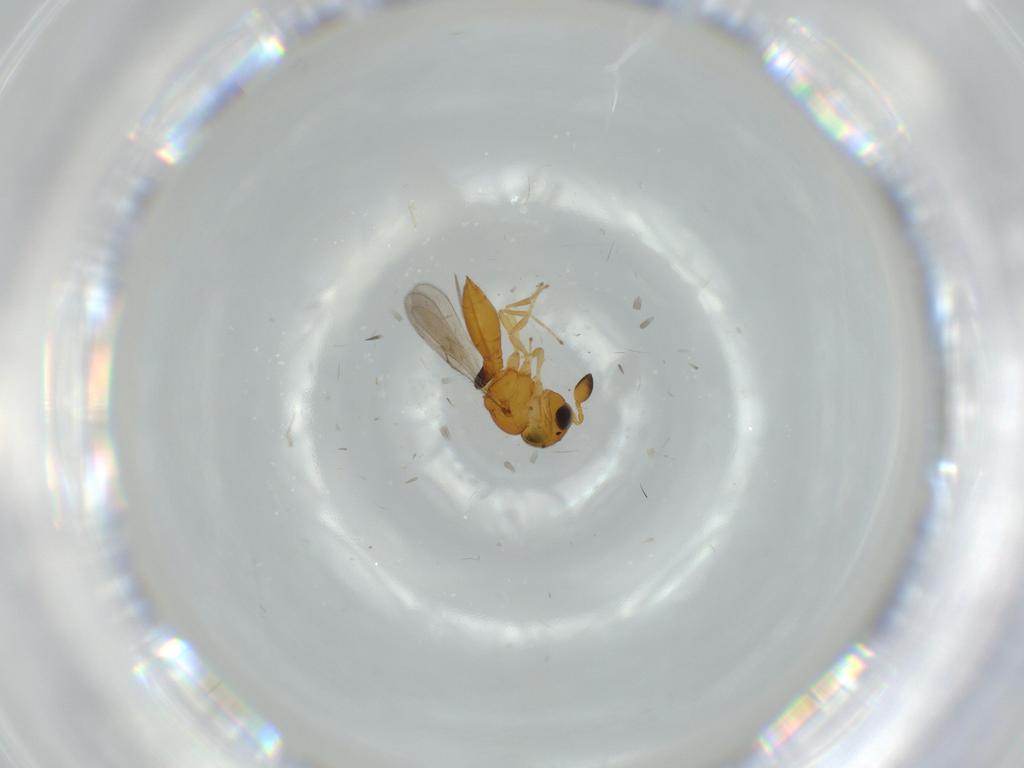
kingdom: Animalia
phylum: Arthropoda
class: Insecta
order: Hymenoptera
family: Scelionidae
